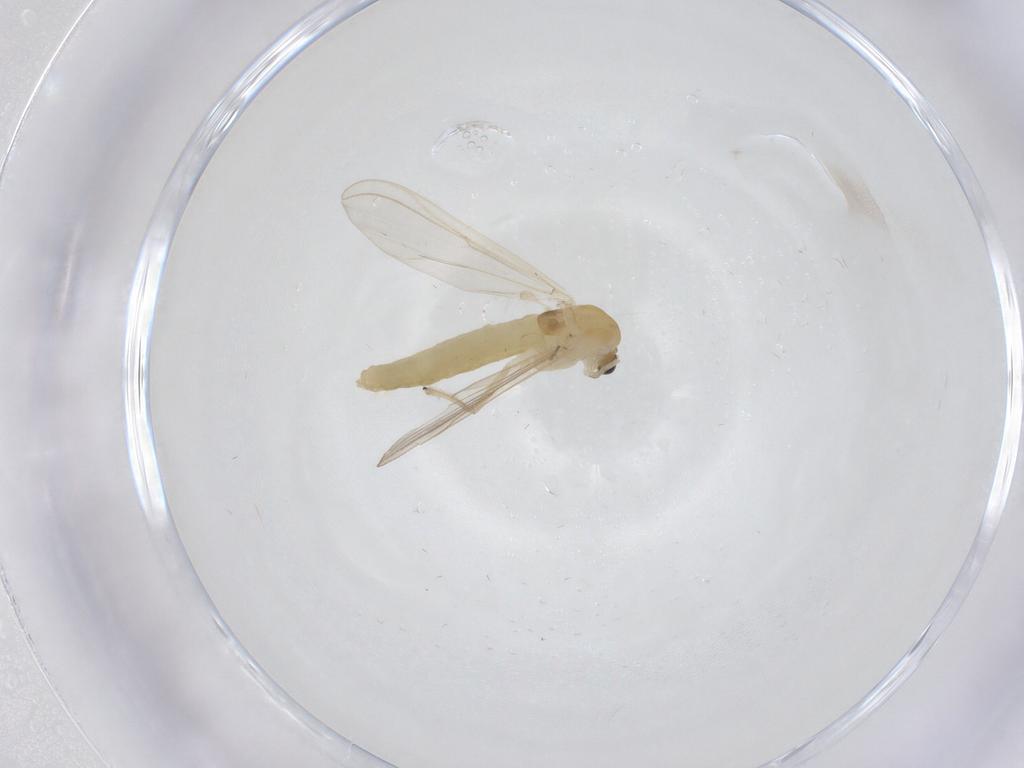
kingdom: Animalia
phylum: Arthropoda
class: Insecta
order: Diptera
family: Chironomidae
